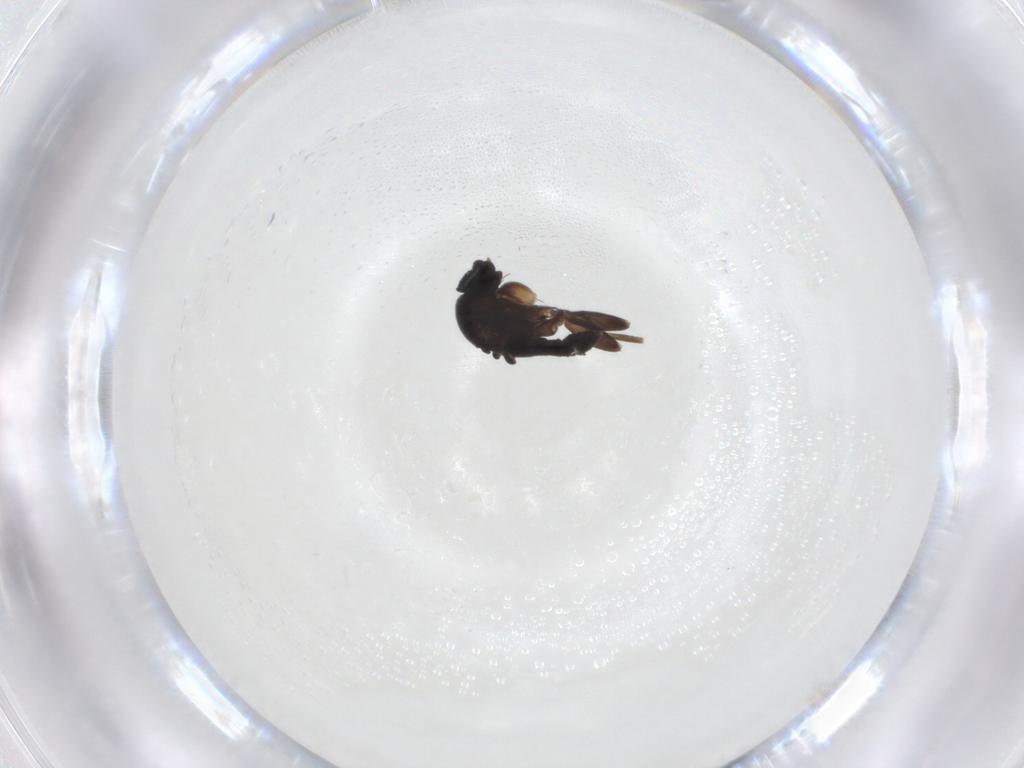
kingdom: Animalia
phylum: Arthropoda
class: Insecta
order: Diptera
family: Phoridae
